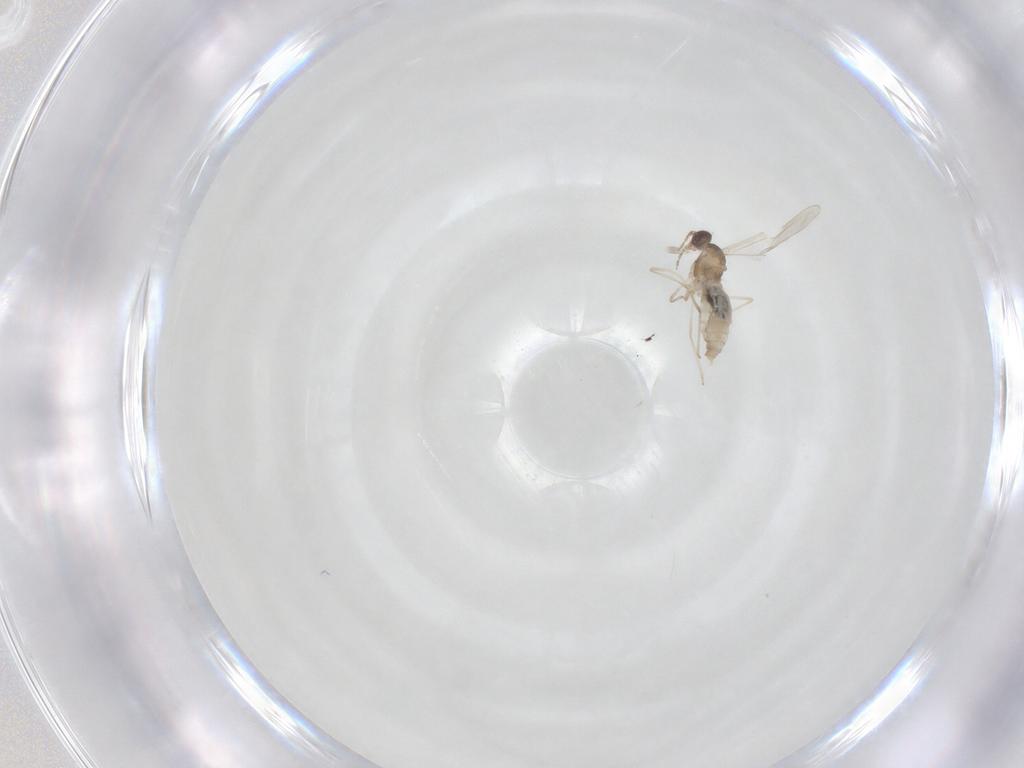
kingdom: Animalia
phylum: Arthropoda
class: Insecta
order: Diptera
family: Cecidomyiidae
